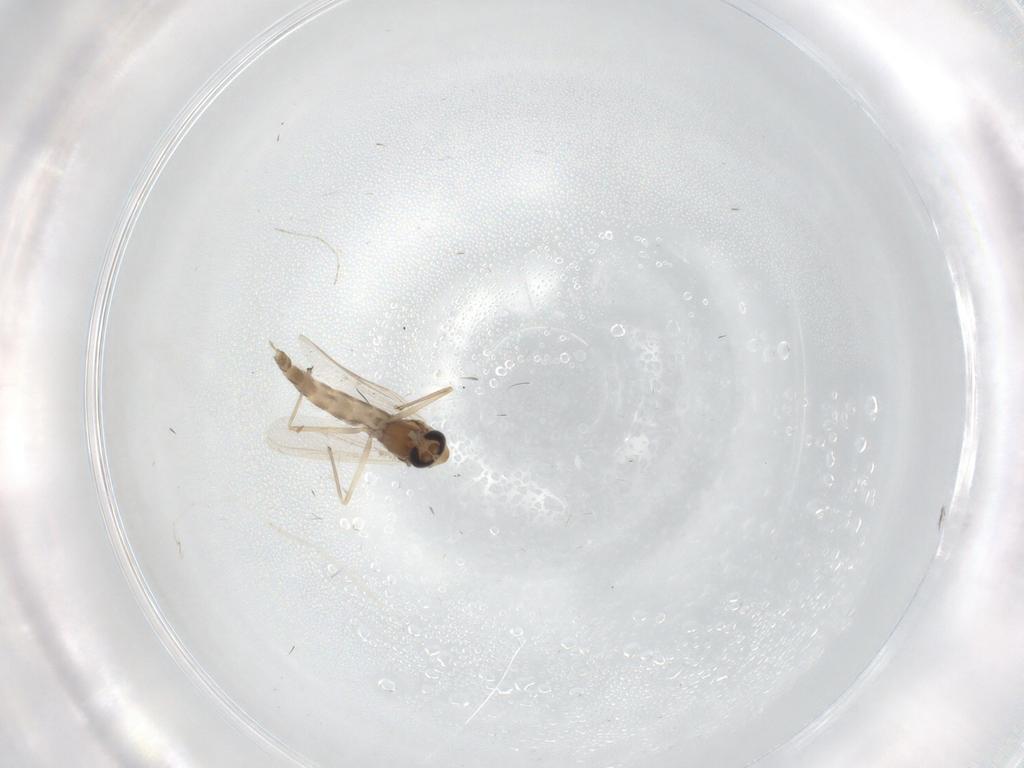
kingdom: Animalia
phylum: Arthropoda
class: Insecta
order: Diptera
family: Chironomidae
